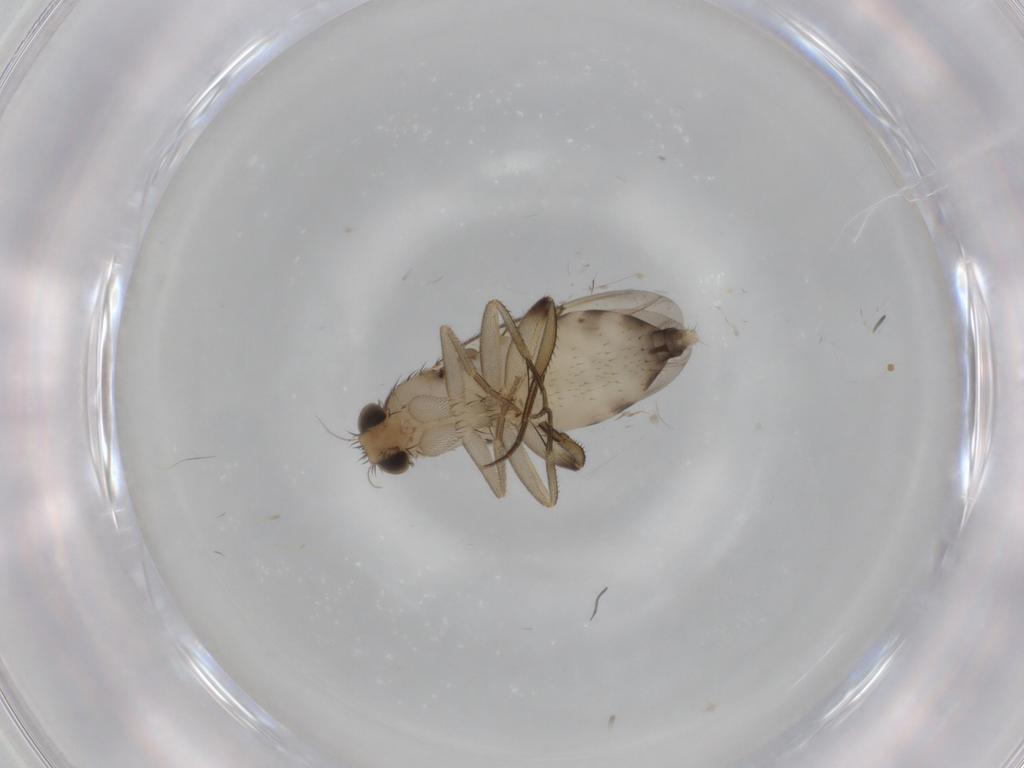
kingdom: Animalia
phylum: Arthropoda
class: Insecta
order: Diptera
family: Phoridae
